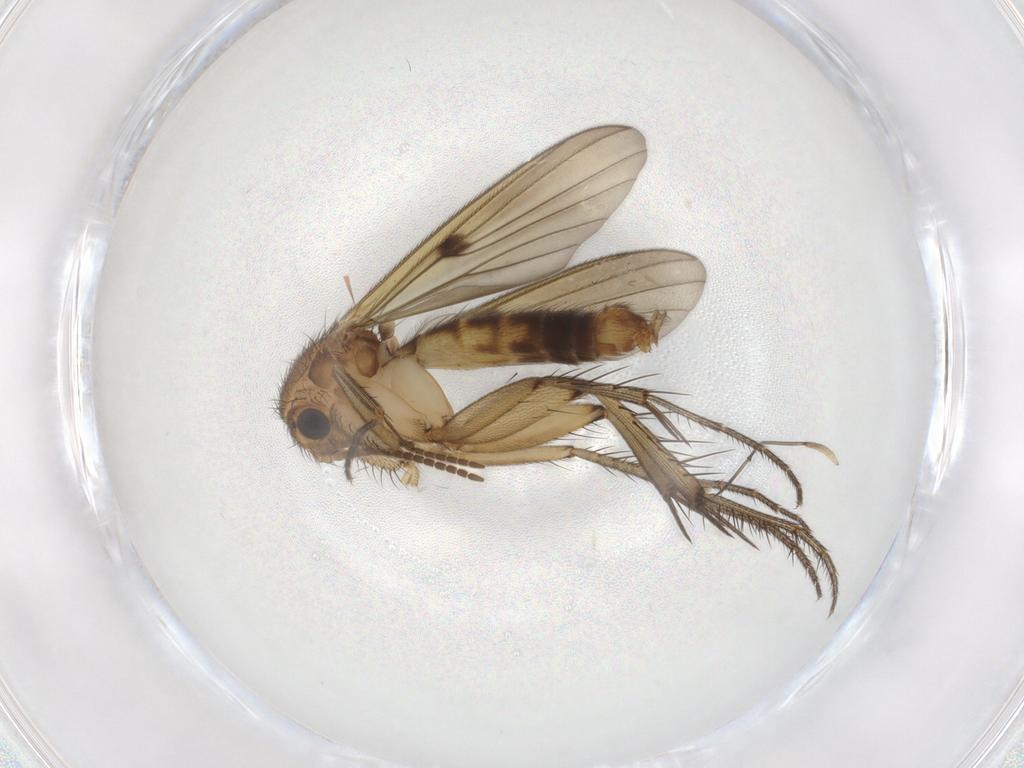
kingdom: Animalia
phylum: Arthropoda
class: Insecta
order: Diptera
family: Mycetophilidae
